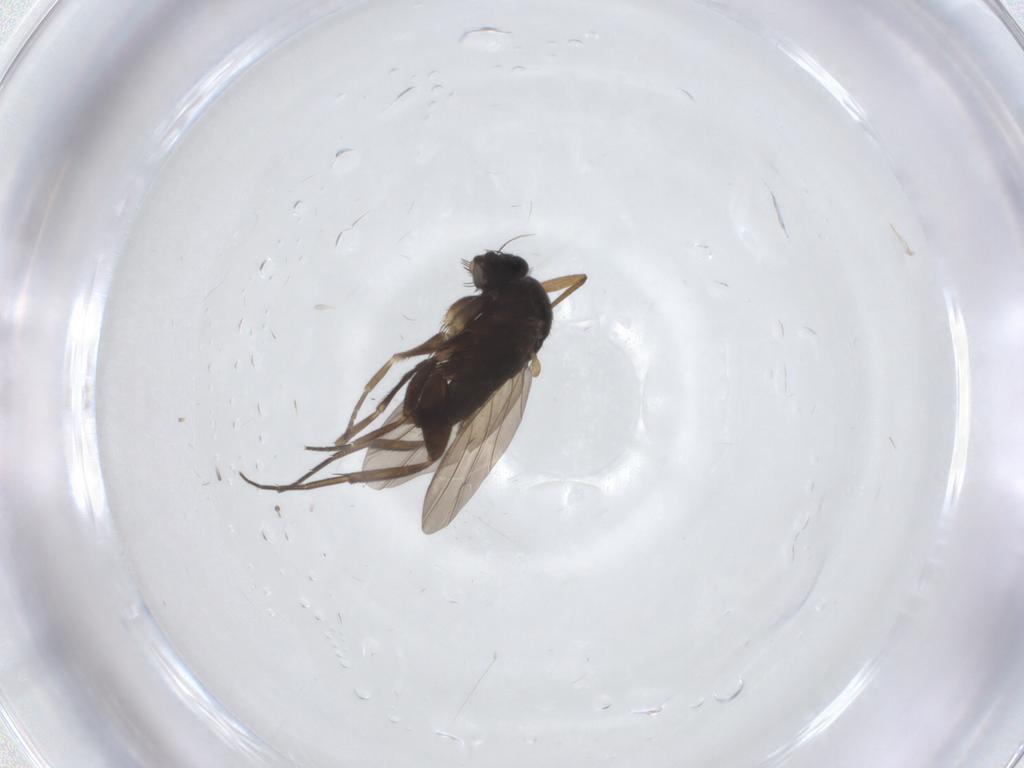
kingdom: Animalia
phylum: Arthropoda
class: Insecta
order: Diptera
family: Phoridae
